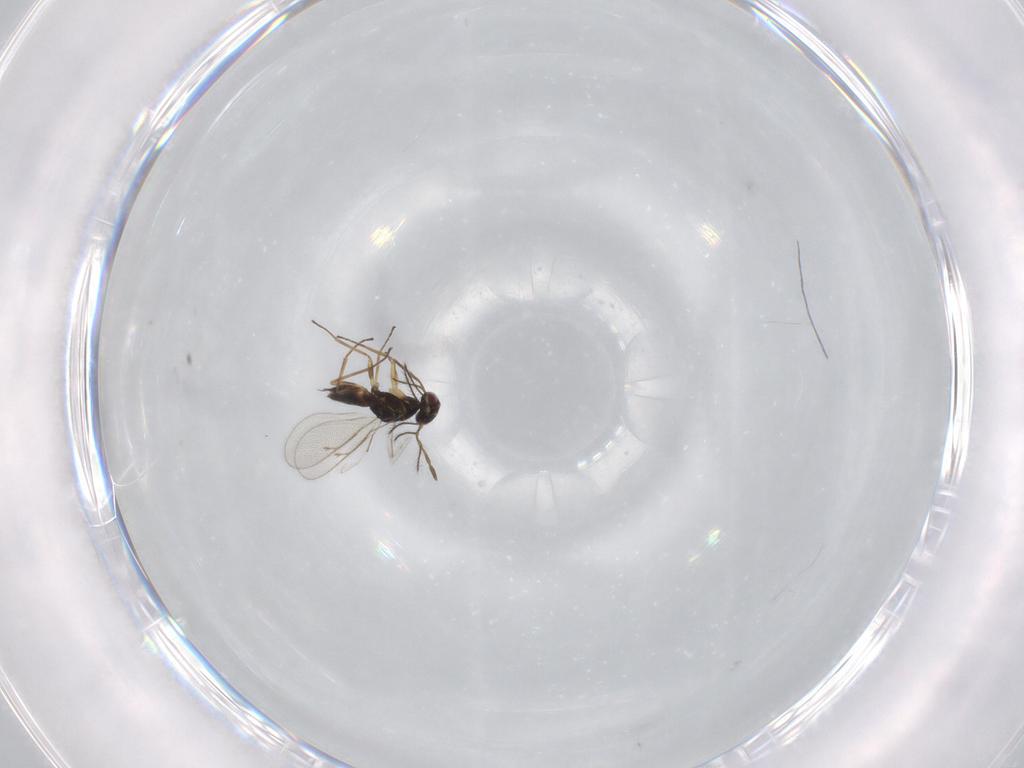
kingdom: Animalia
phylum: Arthropoda
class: Insecta
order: Hymenoptera
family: Eulophidae
